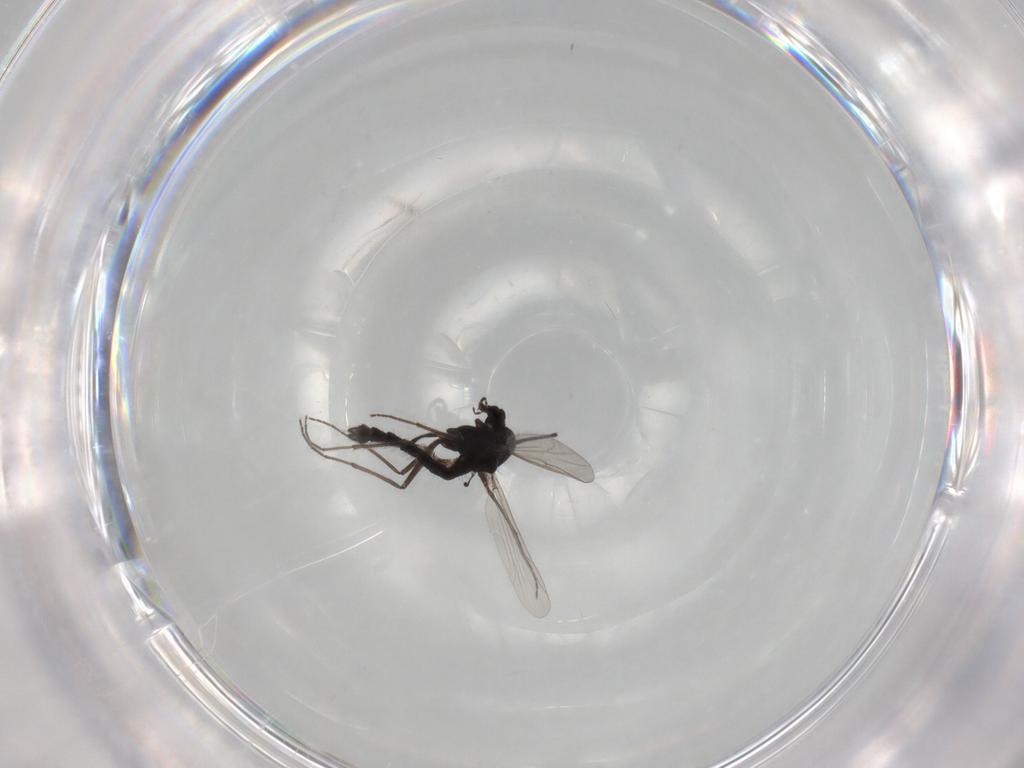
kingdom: Animalia
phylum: Arthropoda
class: Insecta
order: Diptera
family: Chironomidae
